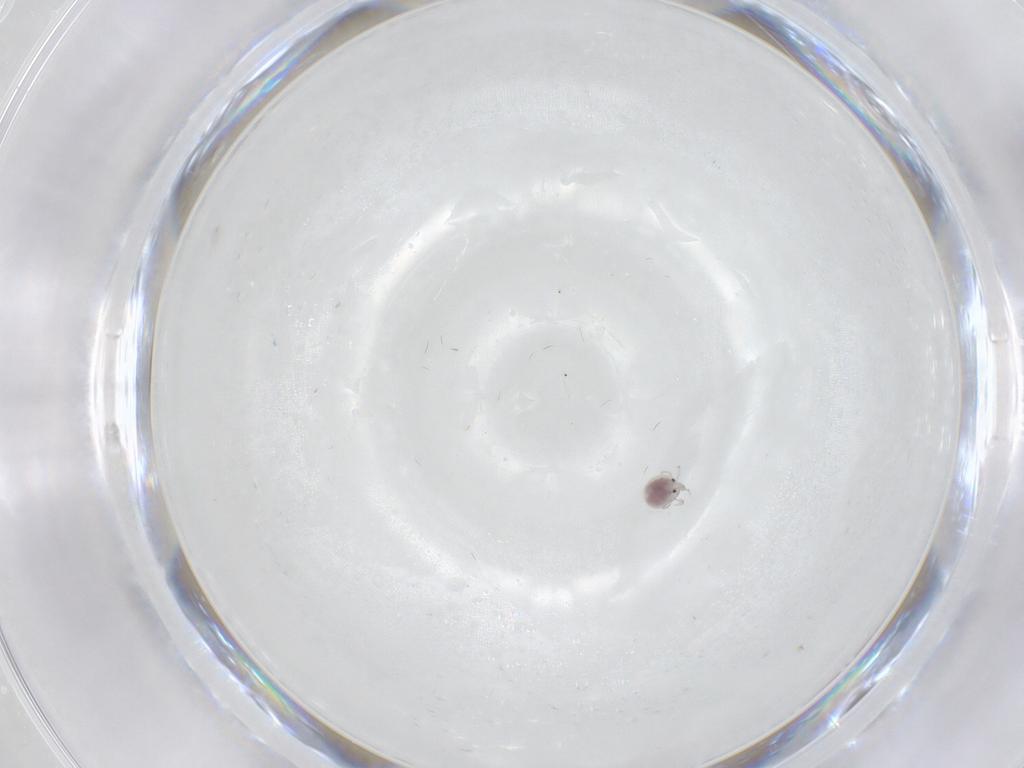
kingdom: Animalia
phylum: Arthropoda
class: Arachnida
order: Trombidiformes
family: Pionidae
